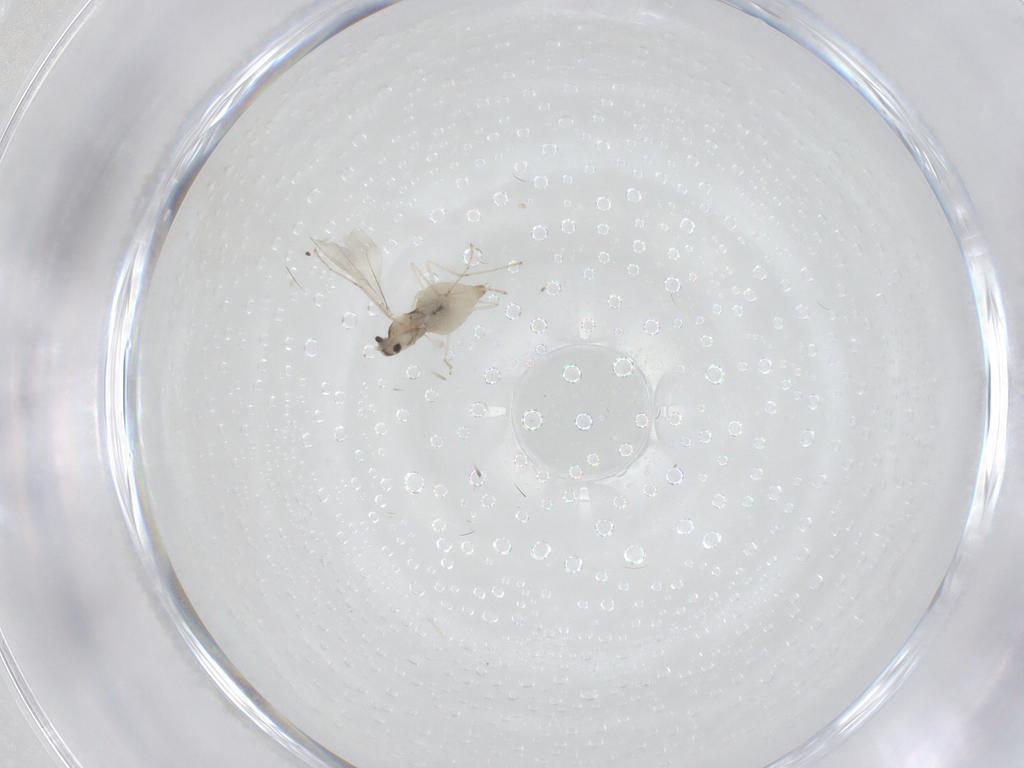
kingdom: Animalia
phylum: Arthropoda
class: Insecta
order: Diptera
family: Cecidomyiidae
